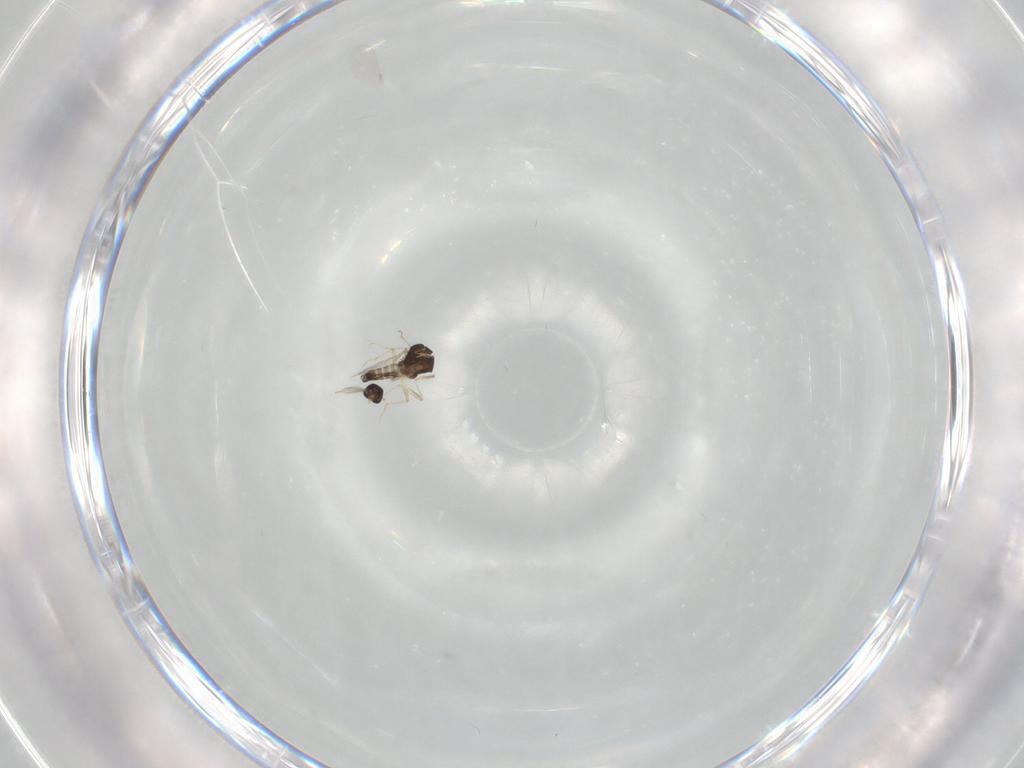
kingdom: Animalia
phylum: Arthropoda
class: Insecta
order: Diptera
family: Ceratopogonidae
